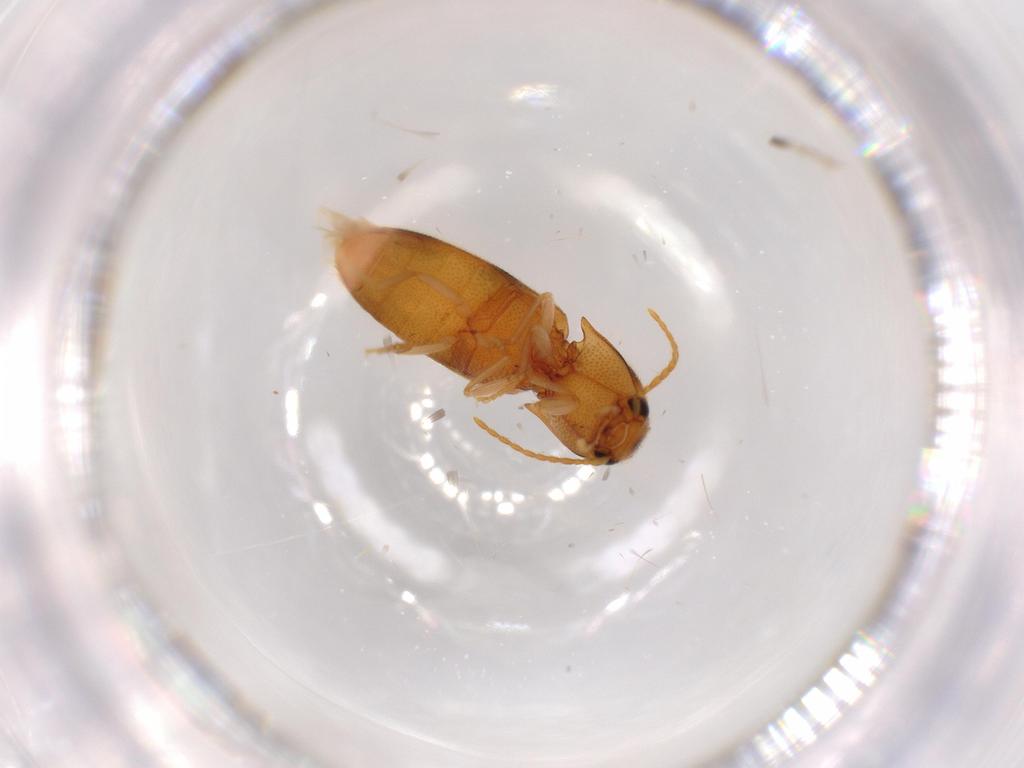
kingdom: Animalia
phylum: Arthropoda
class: Insecta
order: Coleoptera
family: Elateridae
